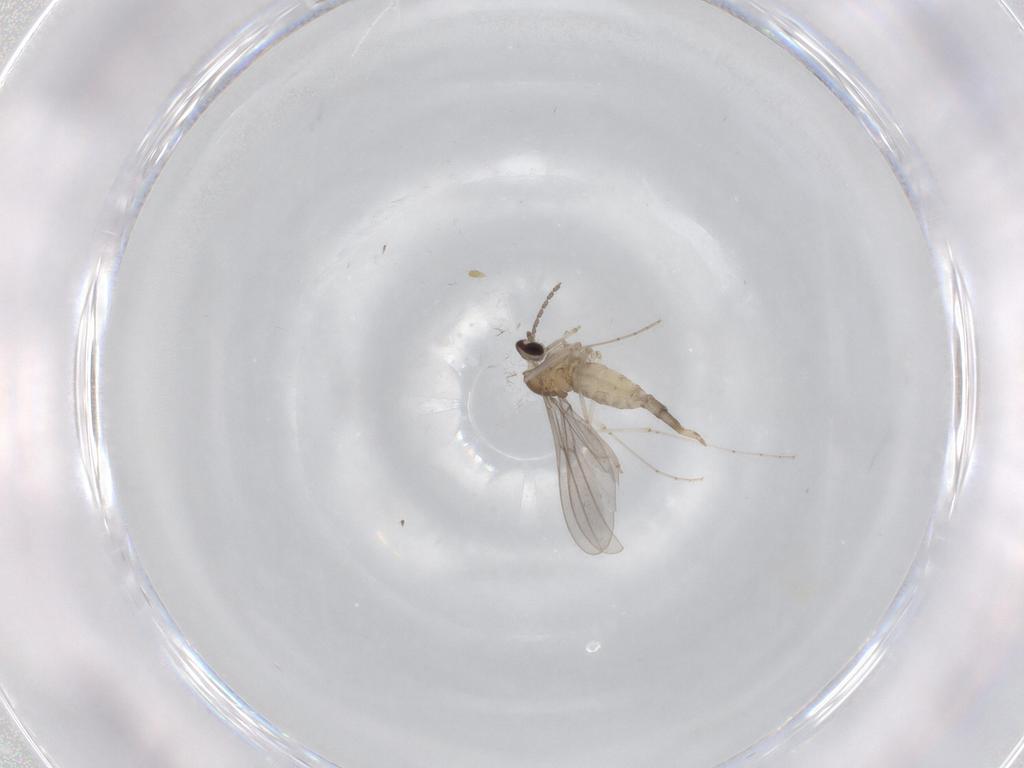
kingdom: Animalia
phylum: Arthropoda
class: Insecta
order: Diptera
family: Cecidomyiidae
